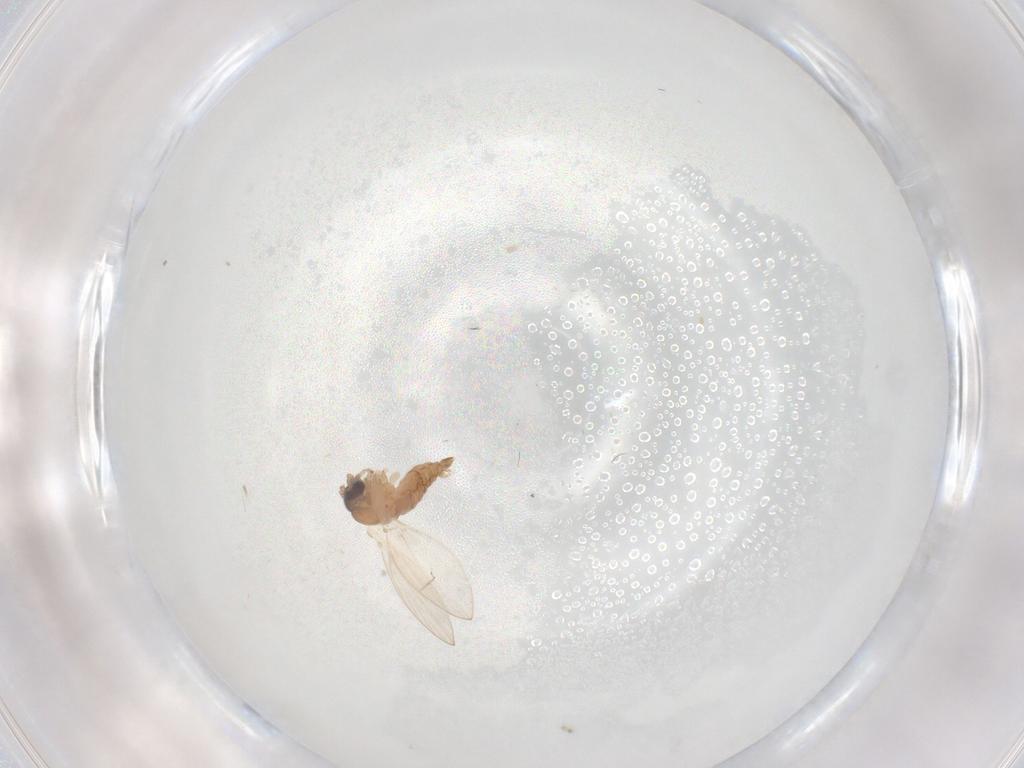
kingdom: Animalia
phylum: Arthropoda
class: Insecta
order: Diptera
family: Psychodidae
